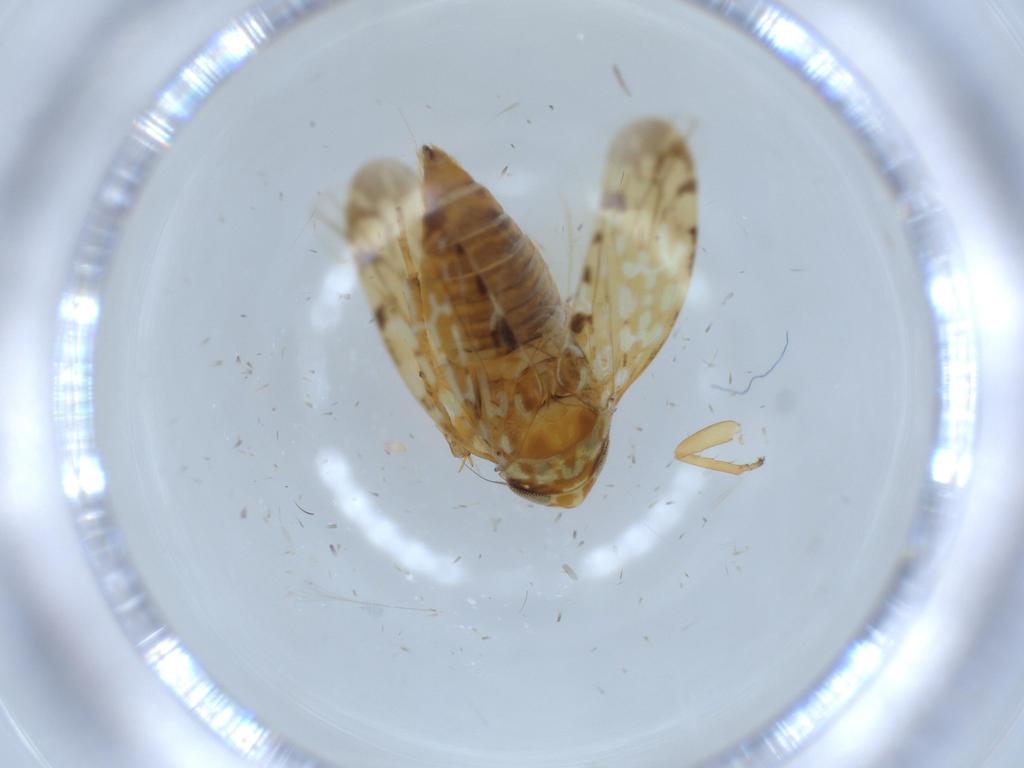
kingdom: Animalia
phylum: Arthropoda
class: Insecta
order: Hemiptera
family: Cicadellidae
